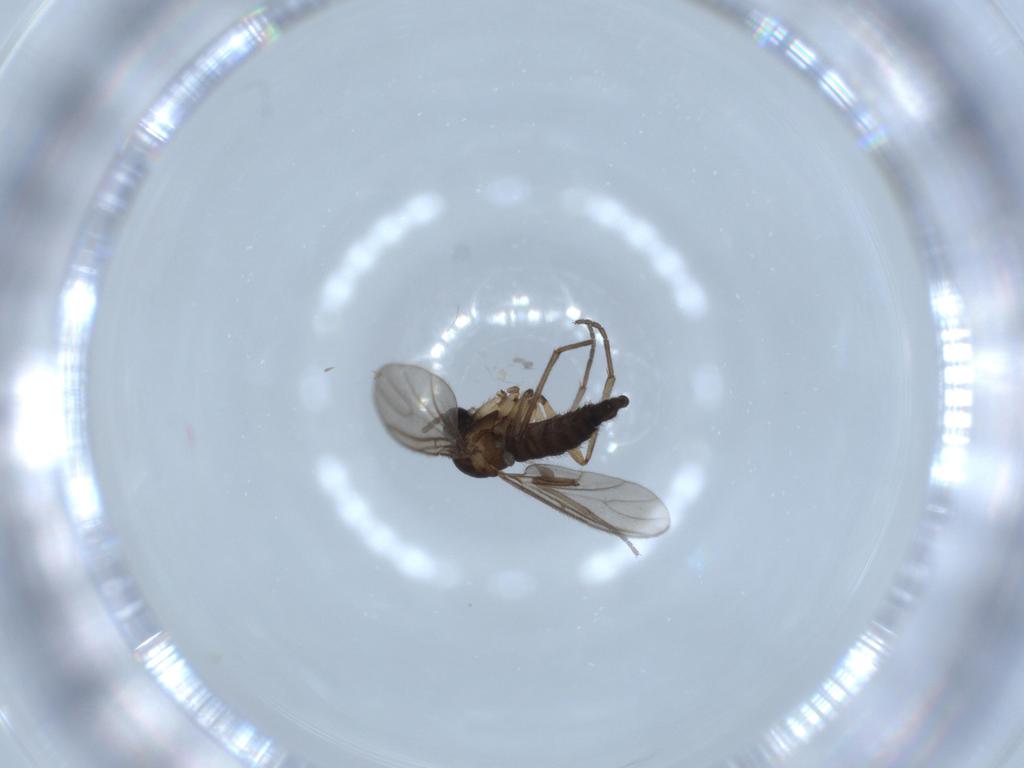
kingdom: Animalia
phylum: Arthropoda
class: Insecta
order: Diptera
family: Sciaridae
